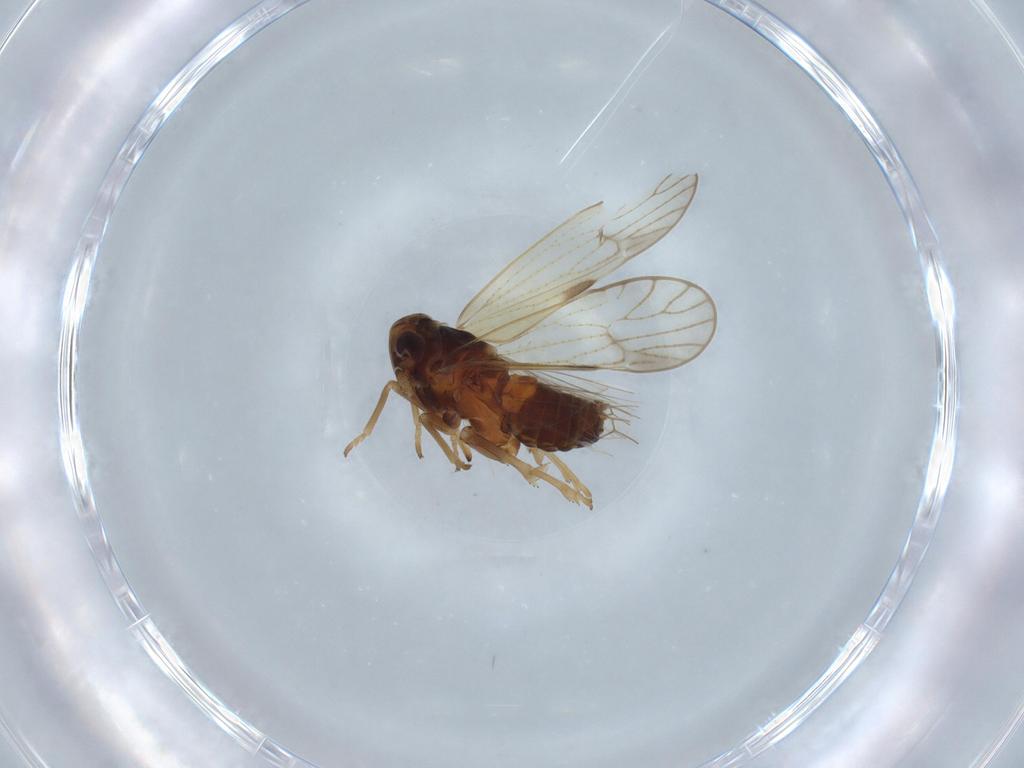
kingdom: Animalia
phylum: Arthropoda
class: Insecta
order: Hemiptera
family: Delphacidae
